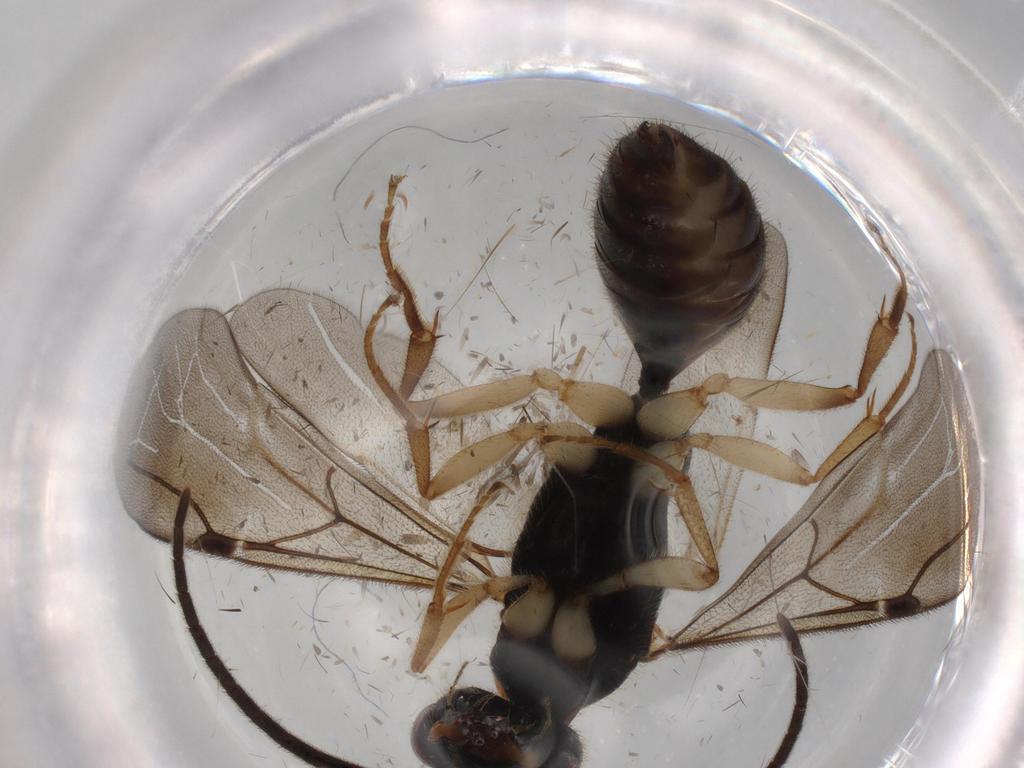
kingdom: Animalia
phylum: Arthropoda
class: Insecta
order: Hymenoptera
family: Bethylidae
